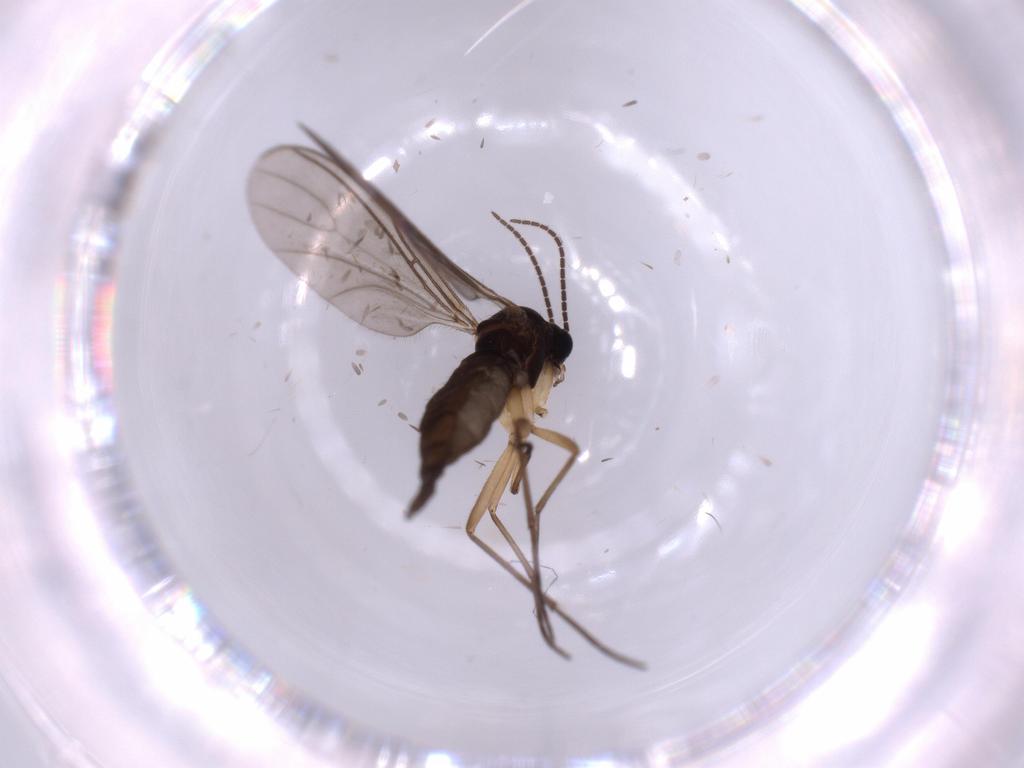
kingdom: Animalia
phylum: Arthropoda
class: Insecta
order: Diptera
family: Sciaridae
